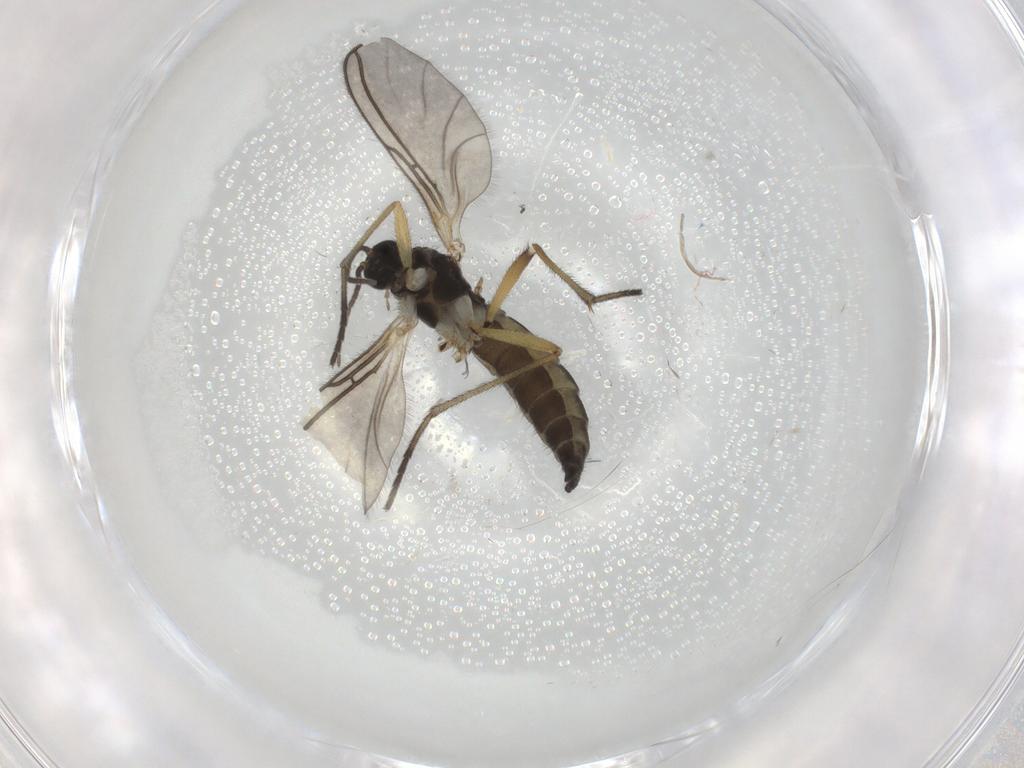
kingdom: Animalia
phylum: Arthropoda
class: Insecta
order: Diptera
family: Sciaridae
